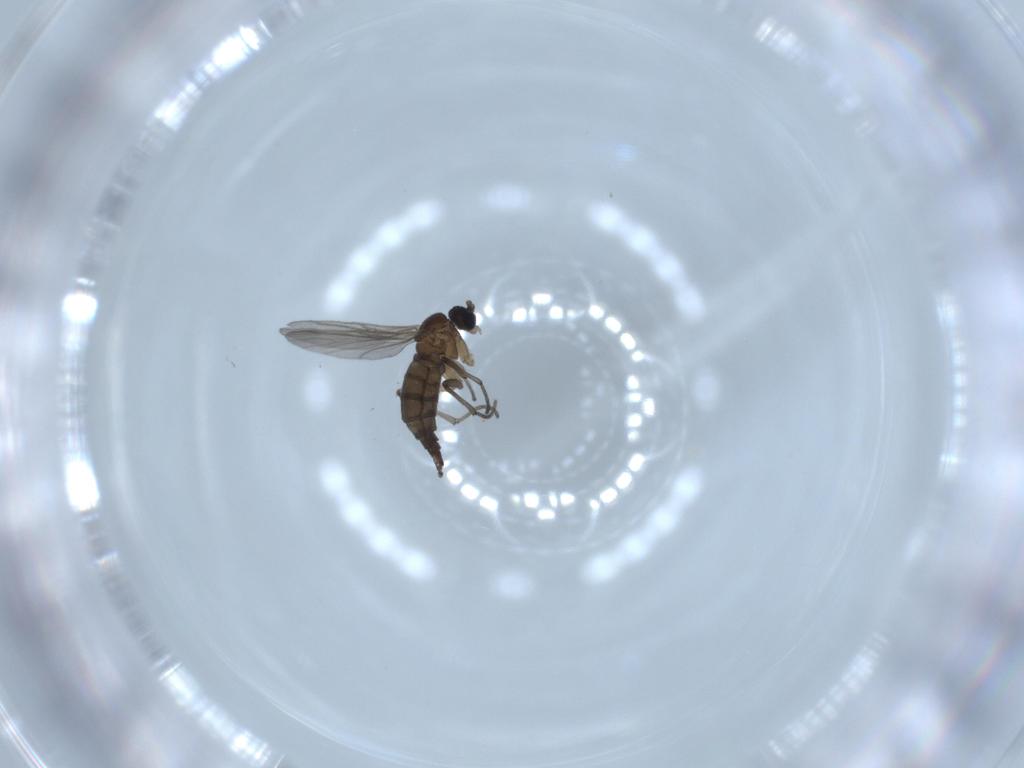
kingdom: Animalia
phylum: Arthropoda
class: Insecta
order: Diptera
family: Sciaridae
